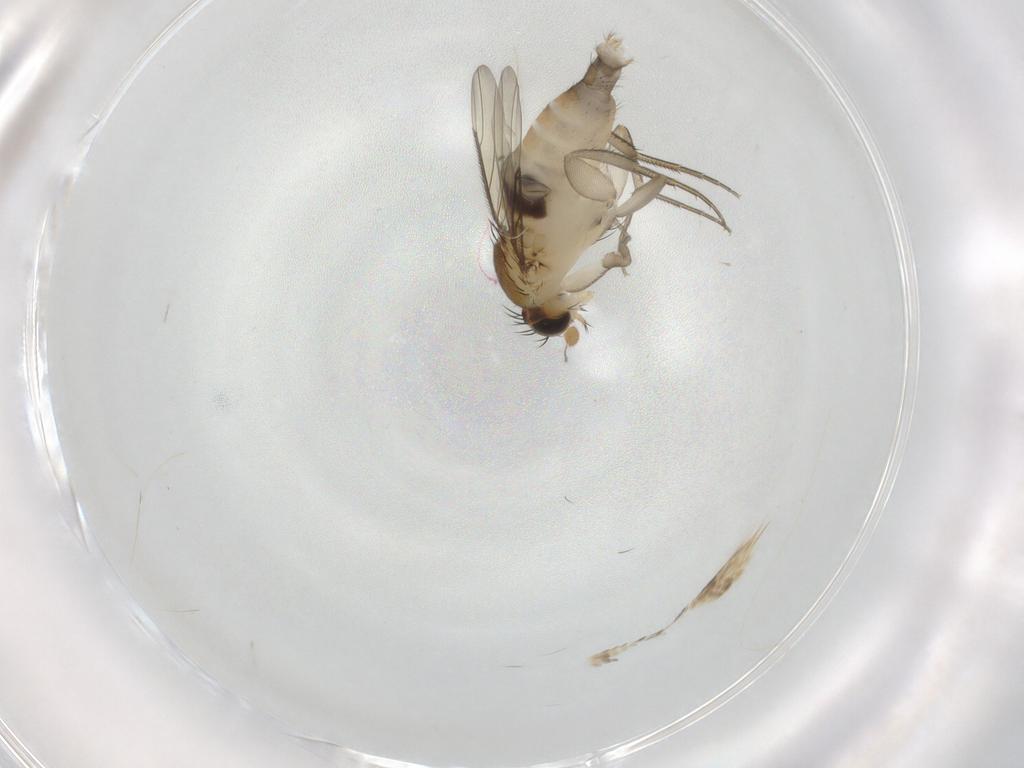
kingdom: Animalia
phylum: Arthropoda
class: Insecta
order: Diptera
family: Phoridae
